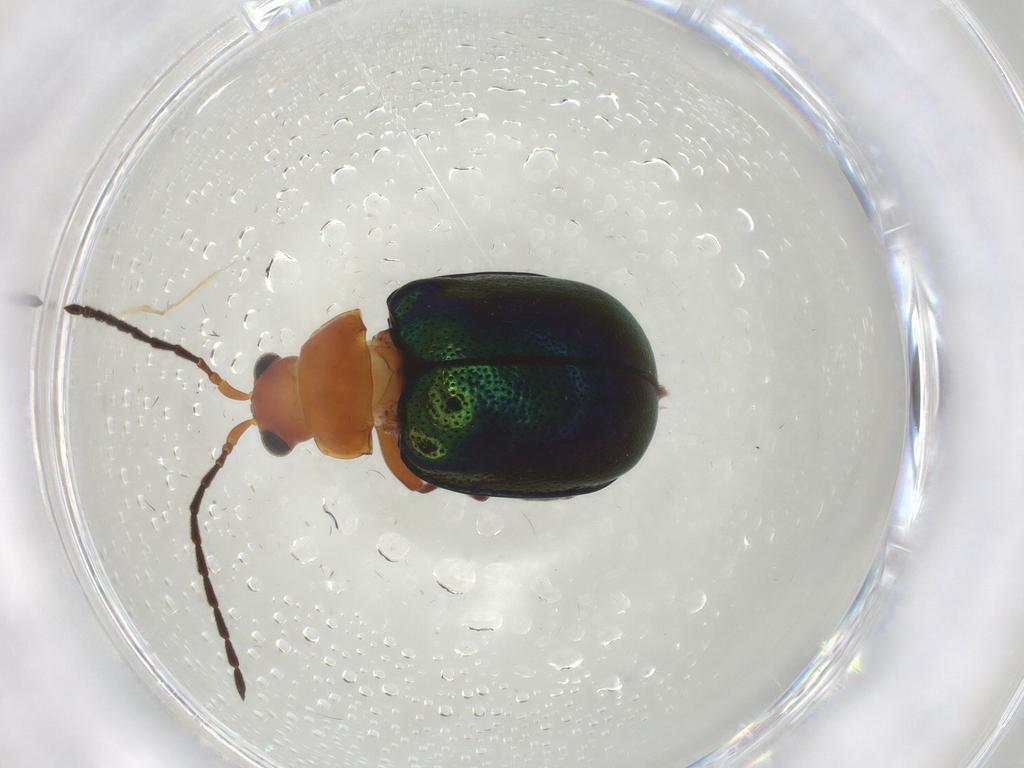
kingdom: Animalia
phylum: Arthropoda
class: Insecta
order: Coleoptera
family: Chrysomelidae
